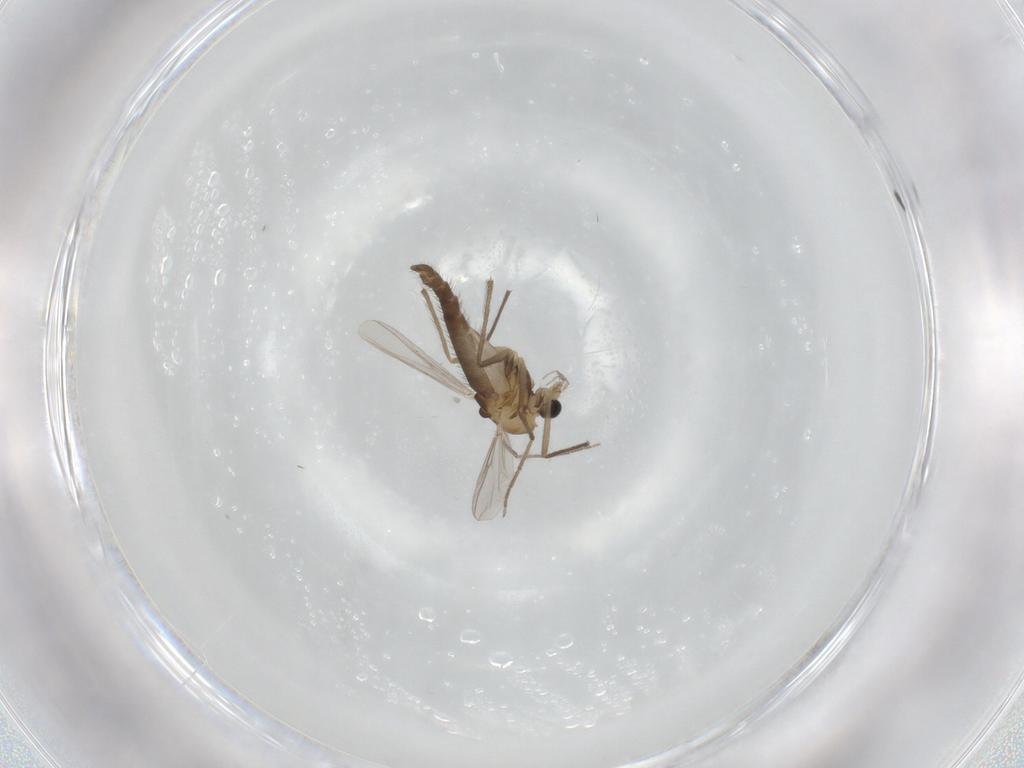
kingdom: Animalia
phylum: Arthropoda
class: Insecta
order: Diptera
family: Chironomidae
